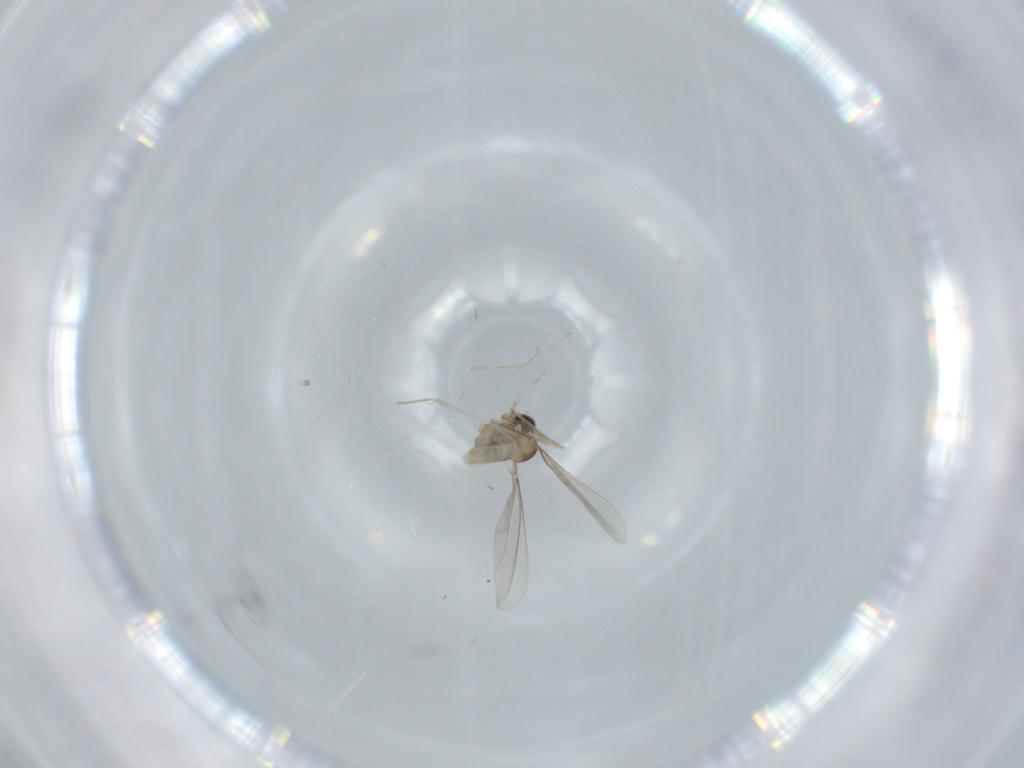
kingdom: Animalia
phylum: Arthropoda
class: Insecta
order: Diptera
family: Cecidomyiidae
